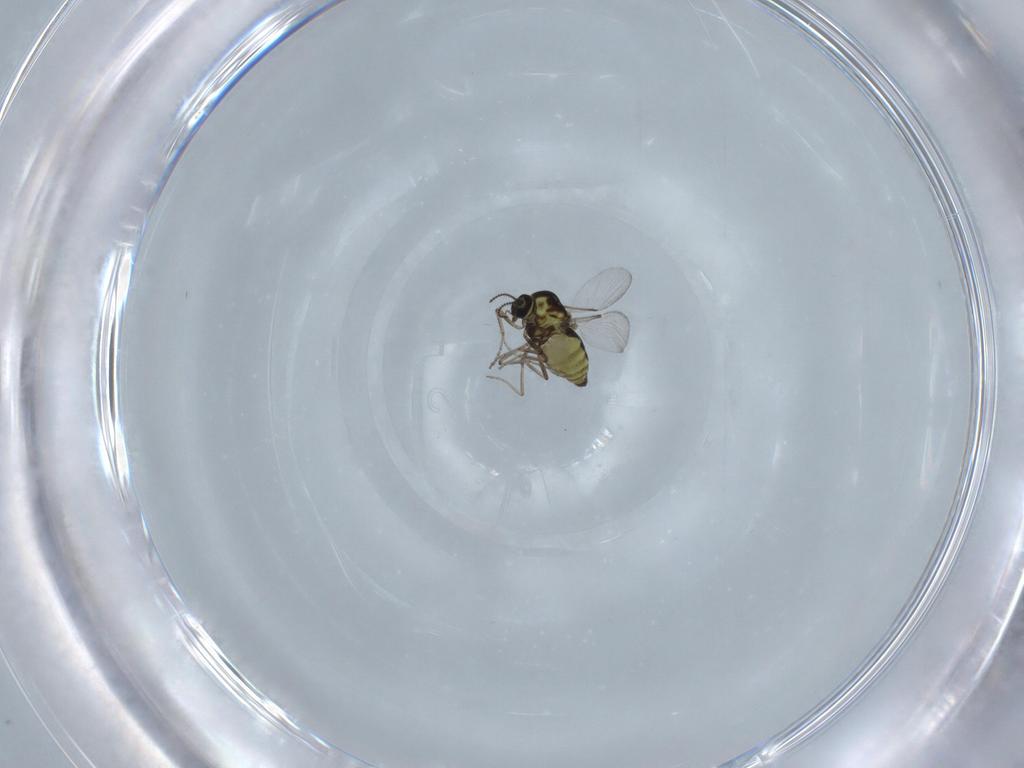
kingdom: Animalia
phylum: Arthropoda
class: Insecta
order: Diptera
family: Ceratopogonidae
